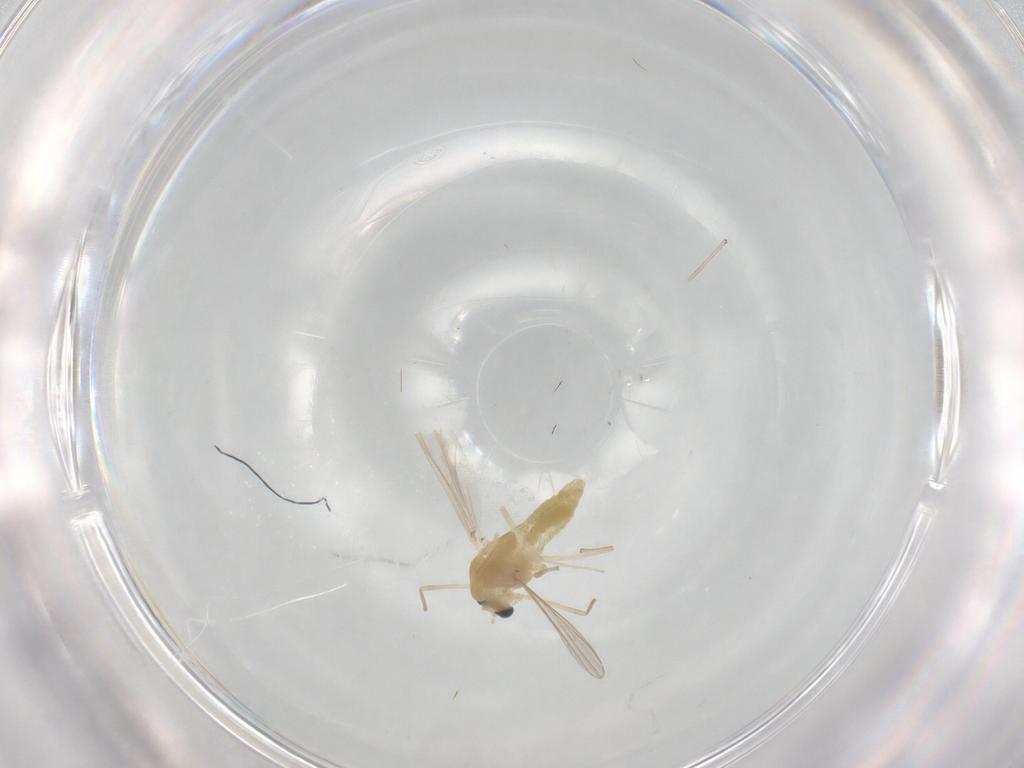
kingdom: Animalia
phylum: Arthropoda
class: Insecta
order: Diptera
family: Chironomidae
